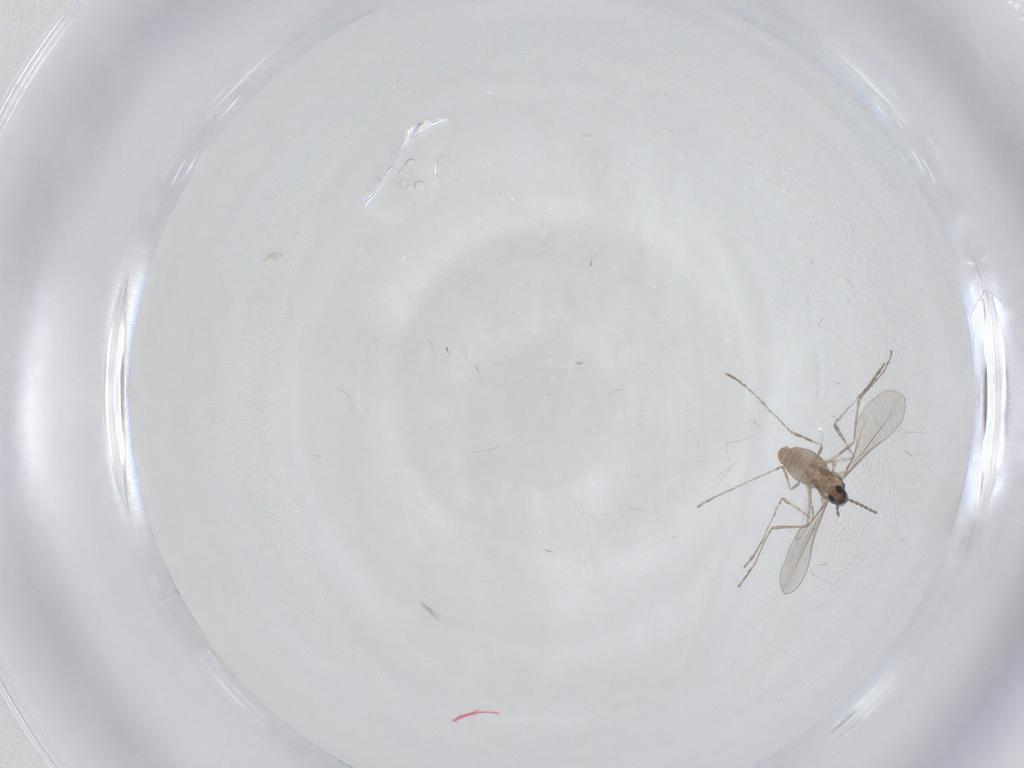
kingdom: Animalia
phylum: Arthropoda
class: Insecta
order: Diptera
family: Cecidomyiidae
